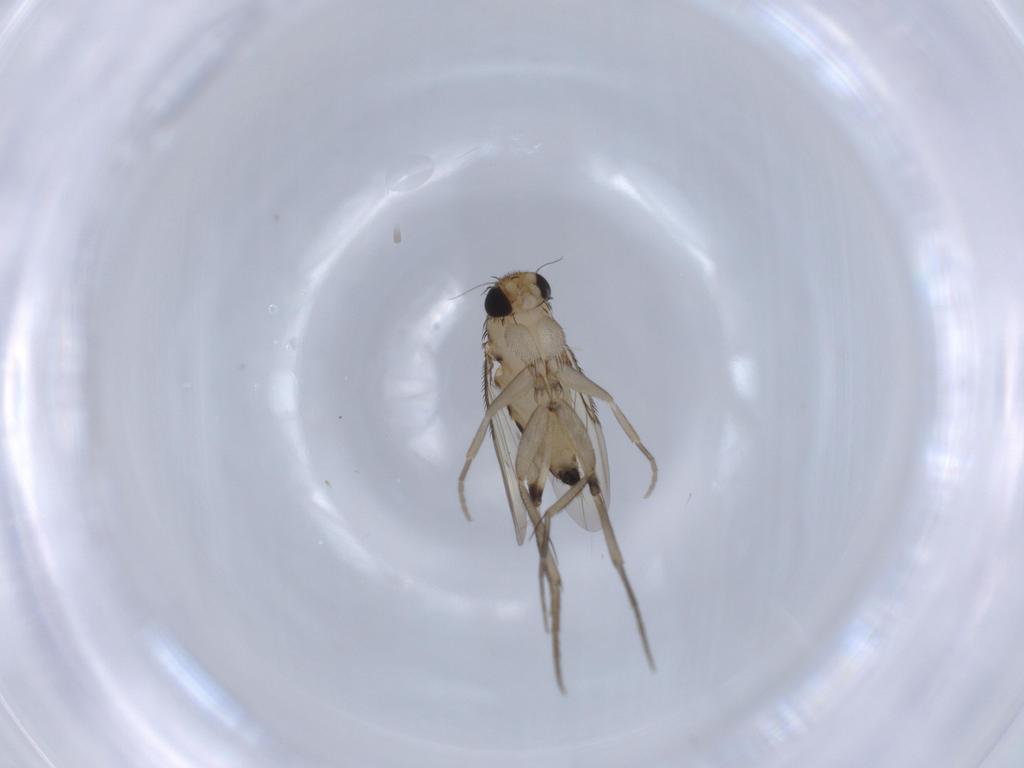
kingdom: Animalia
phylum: Arthropoda
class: Insecta
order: Diptera
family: Phoridae
